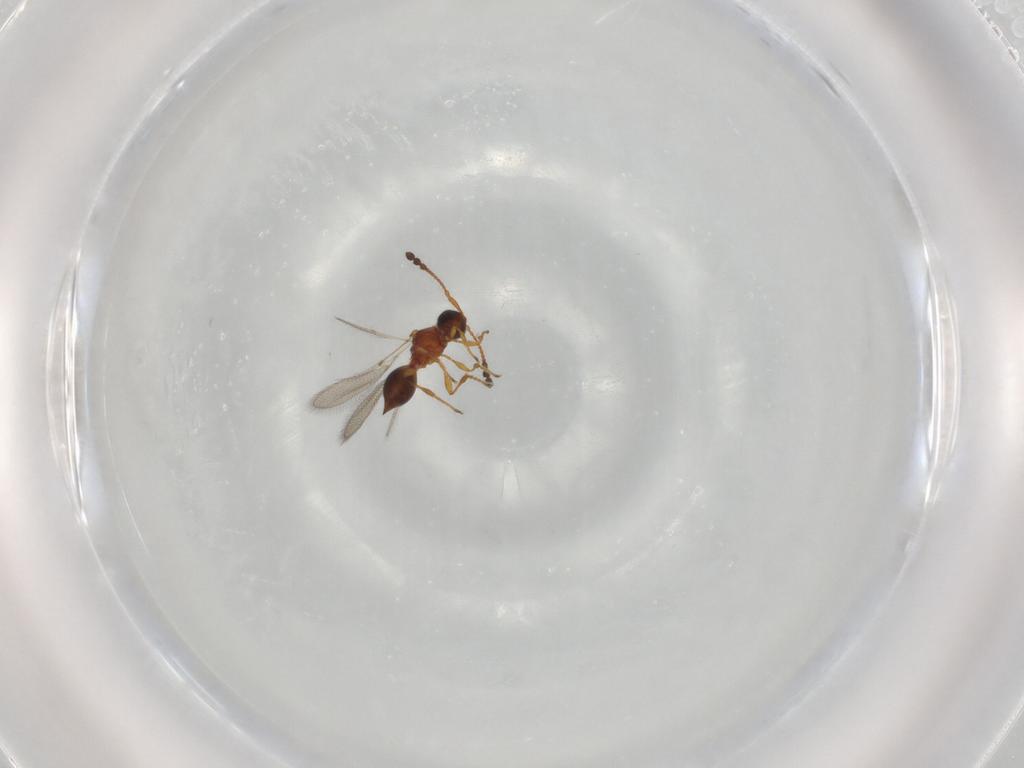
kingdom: Animalia
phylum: Arthropoda
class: Insecta
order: Hymenoptera
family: Diapriidae
